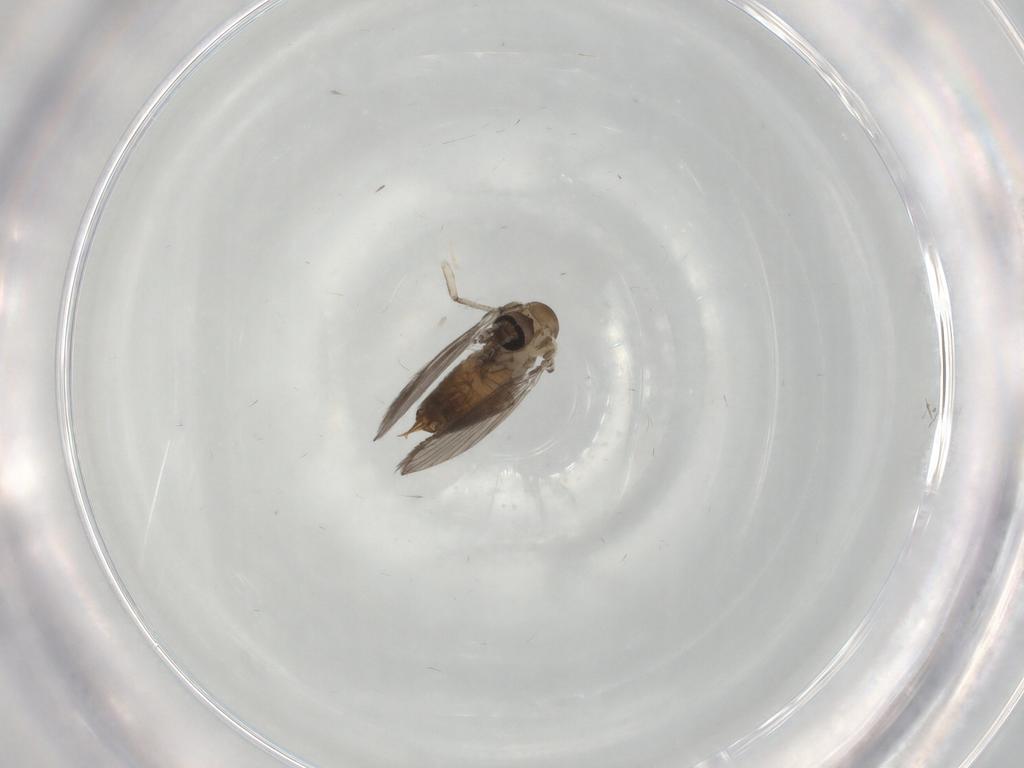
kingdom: Animalia
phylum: Arthropoda
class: Insecta
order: Diptera
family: Psychodidae
